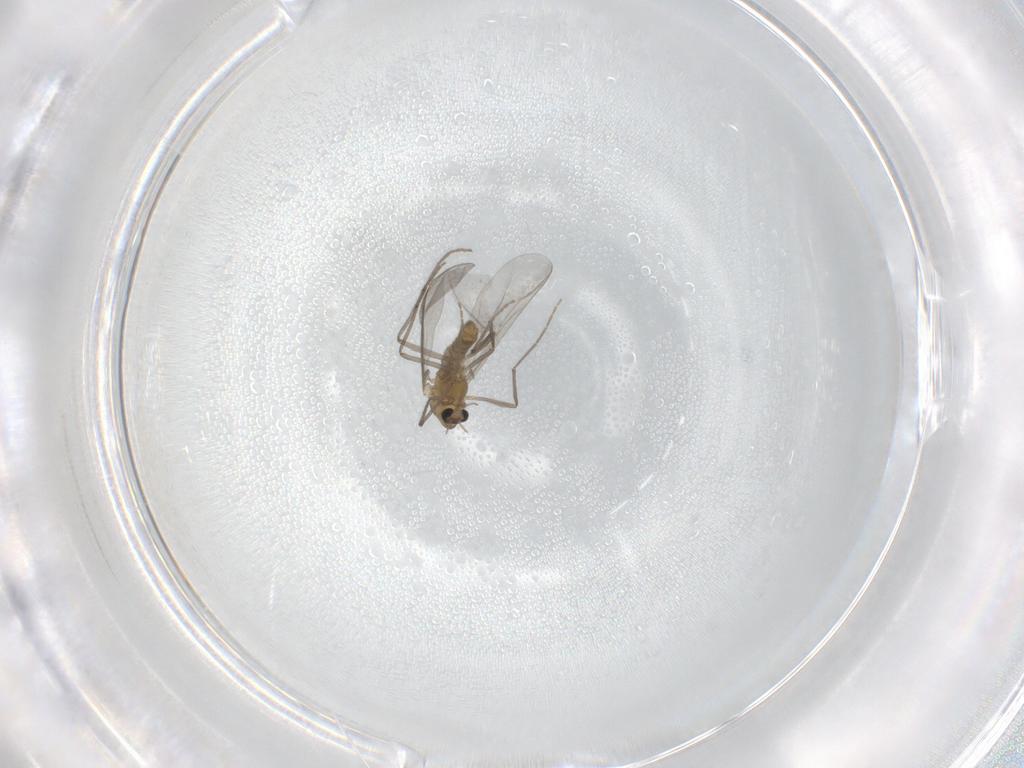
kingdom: Animalia
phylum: Arthropoda
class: Insecta
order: Diptera
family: Chironomidae
